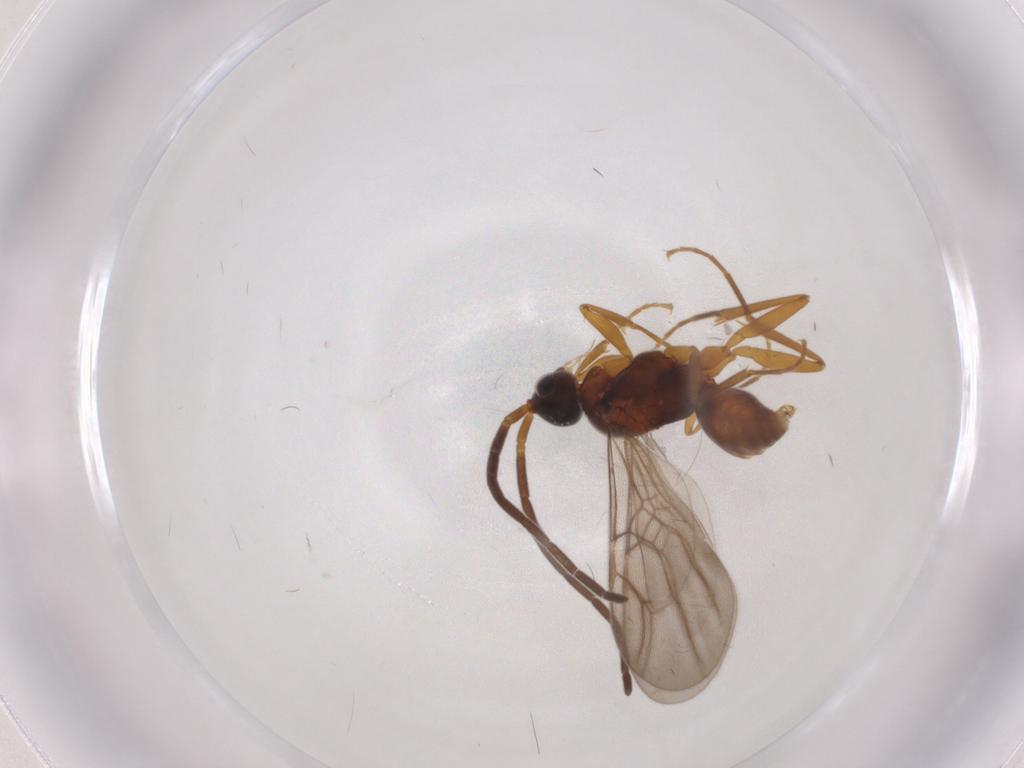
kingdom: Animalia
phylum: Arthropoda
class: Insecta
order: Hymenoptera
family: Embolemidae
